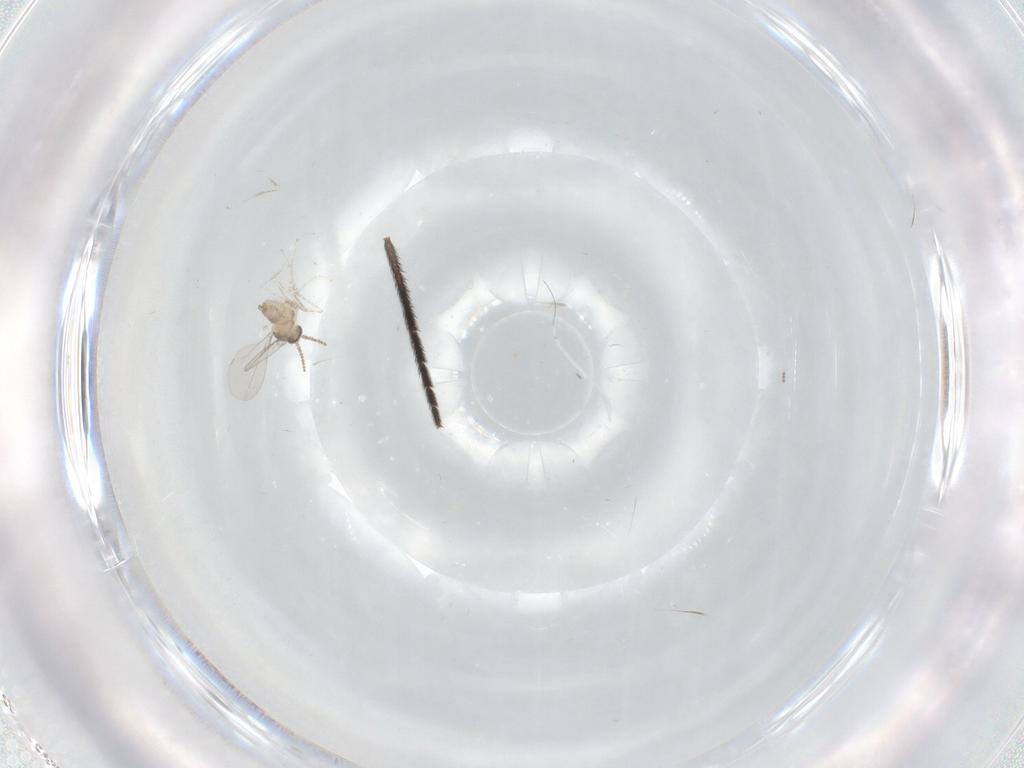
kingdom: Animalia
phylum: Arthropoda
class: Insecta
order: Diptera
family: Cecidomyiidae
